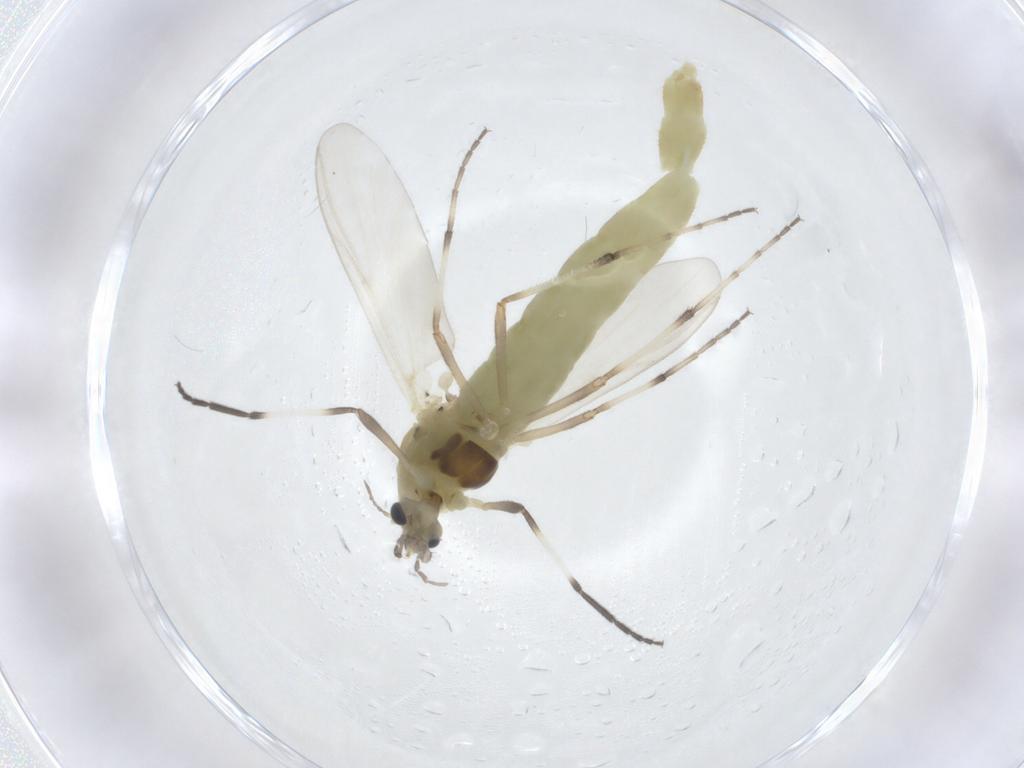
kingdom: Animalia
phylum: Arthropoda
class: Insecta
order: Diptera
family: Chironomidae
